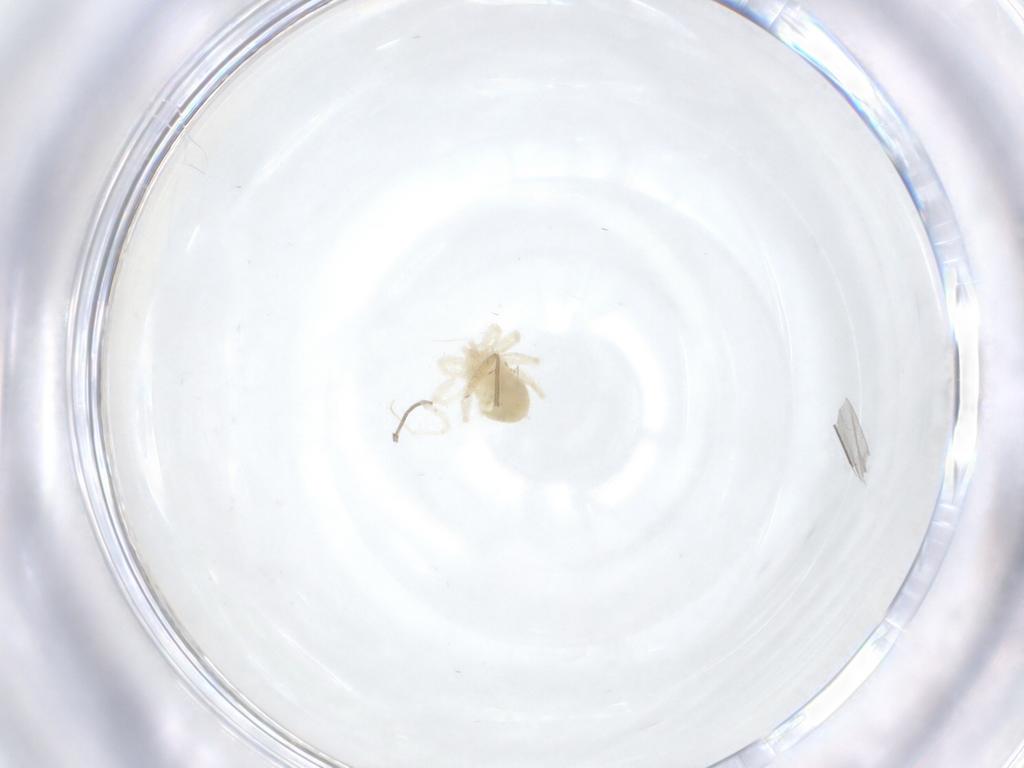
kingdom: Animalia
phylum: Arthropoda
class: Arachnida
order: Trombidiformes
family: Anystidae
